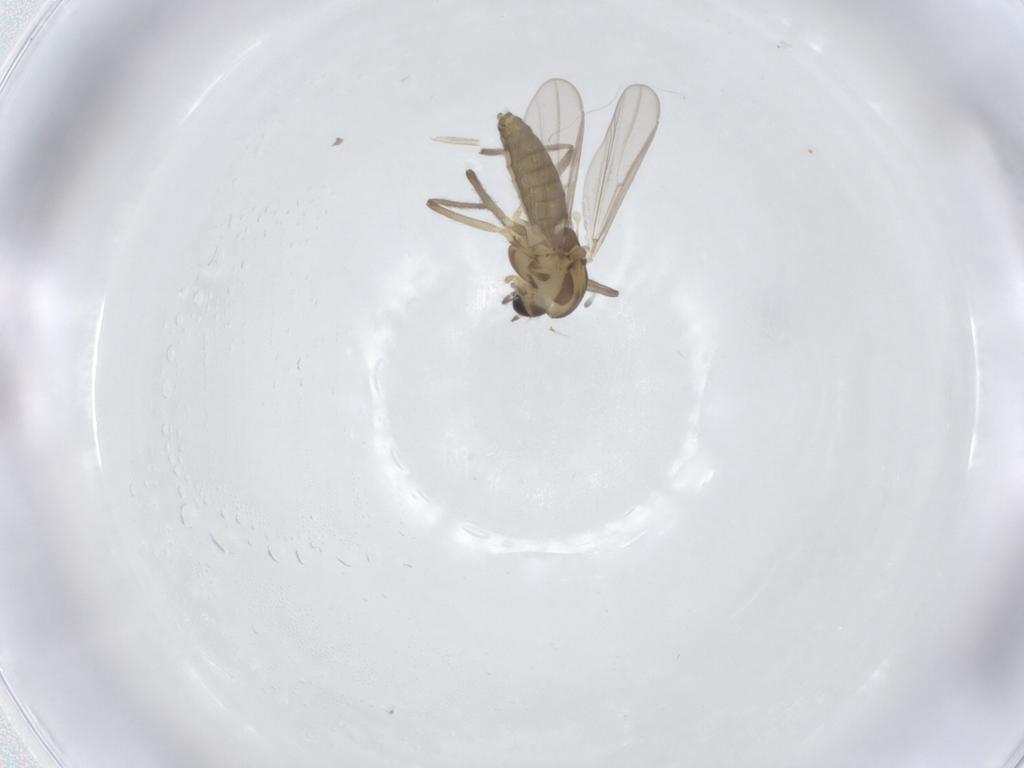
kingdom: Animalia
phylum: Arthropoda
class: Insecta
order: Diptera
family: Chironomidae
